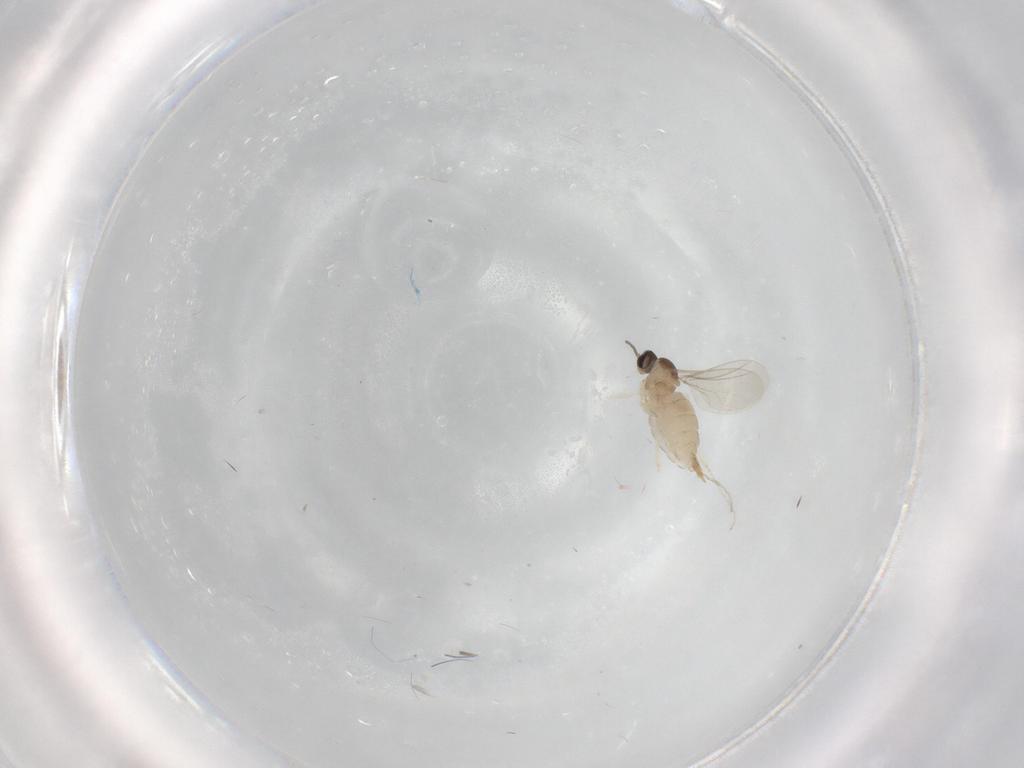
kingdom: Animalia
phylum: Arthropoda
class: Insecta
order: Diptera
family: Cecidomyiidae
